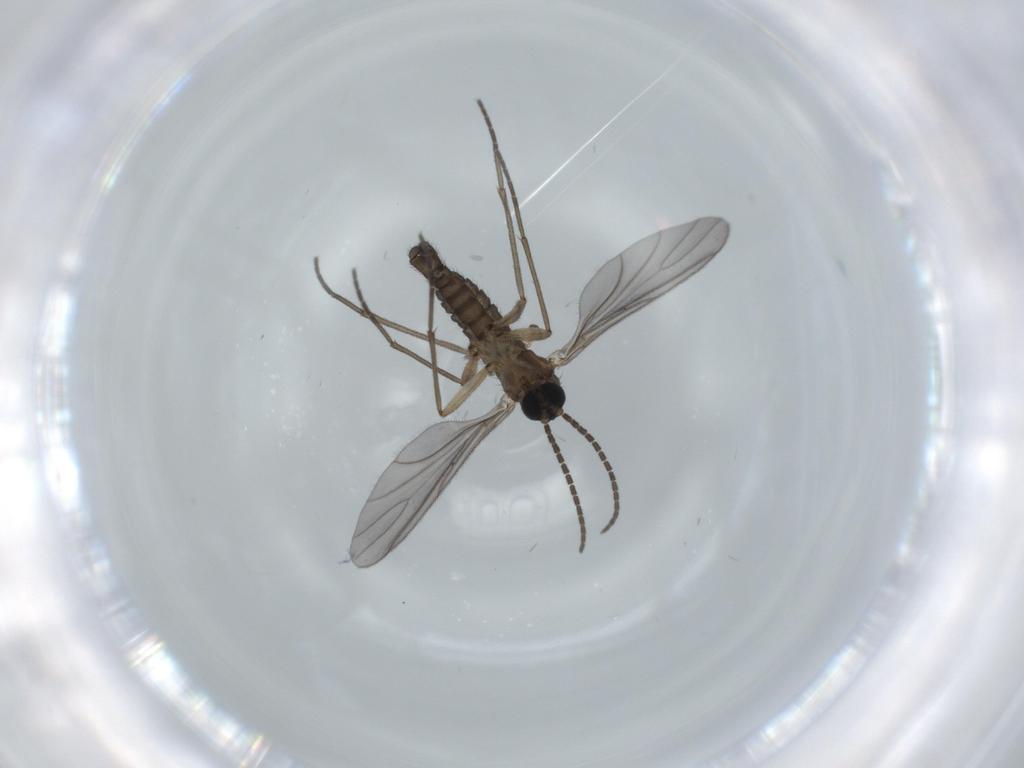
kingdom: Animalia
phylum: Arthropoda
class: Insecta
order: Diptera
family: Sciaridae
